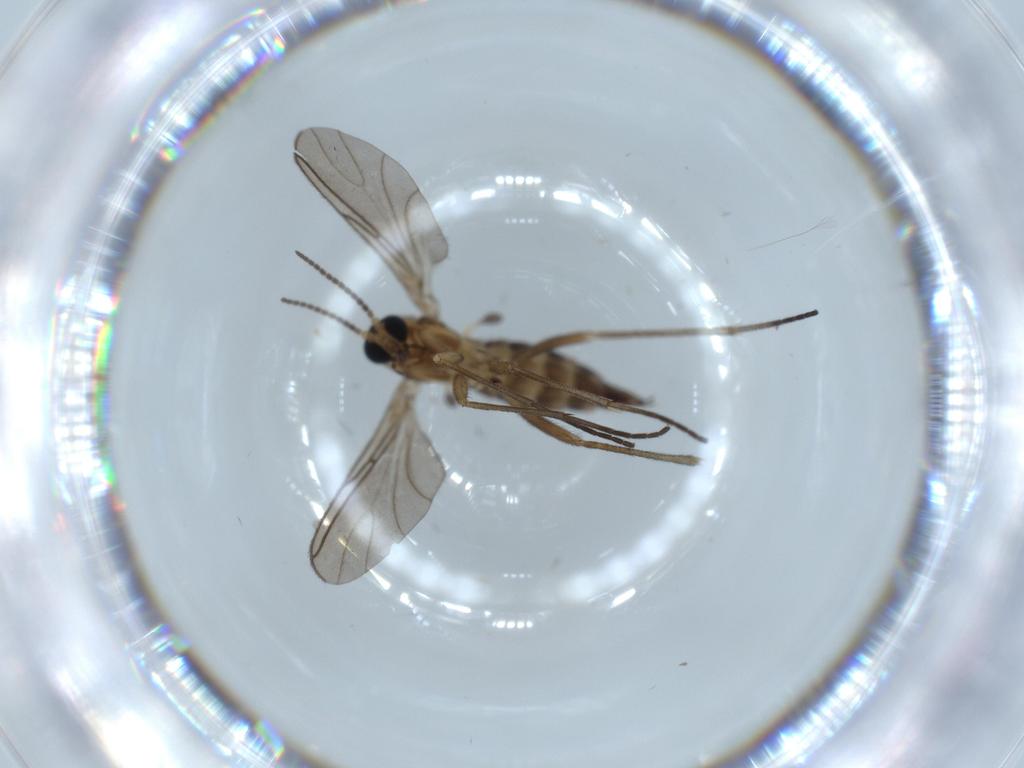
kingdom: Animalia
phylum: Arthropoda
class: Insecta
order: Diptera
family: Sciaridae
